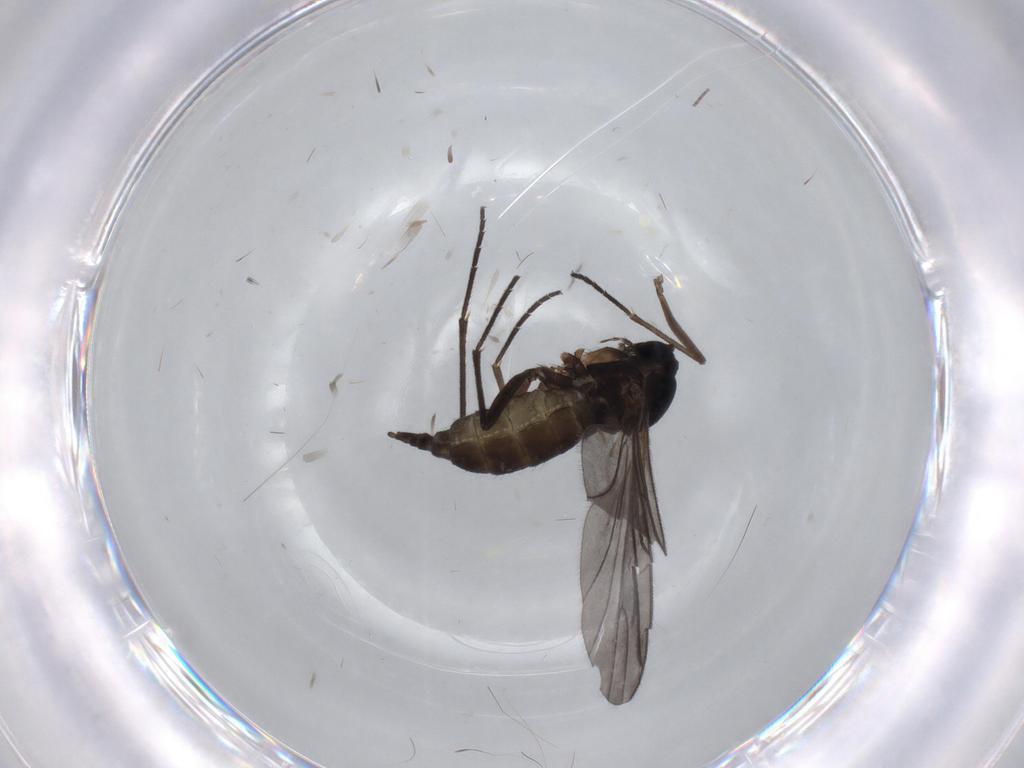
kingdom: Animalia
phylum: Arthropoda
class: Insecta
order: Diptera
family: Sciaridae
